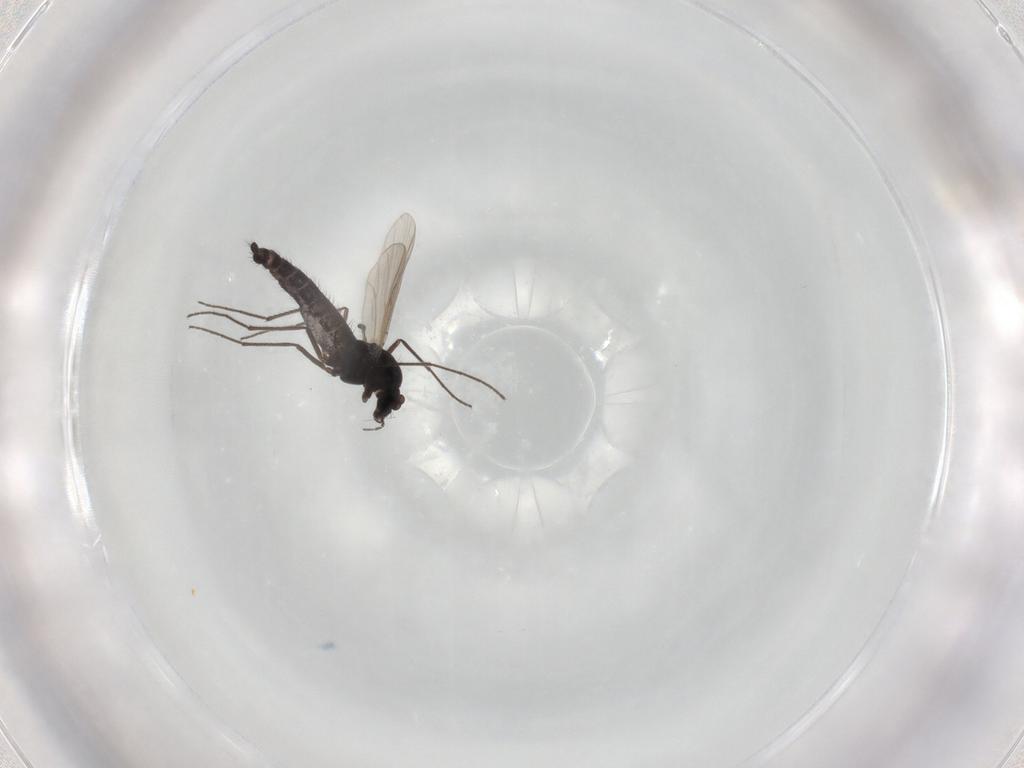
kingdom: Animalia
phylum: Arthropoda
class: Insecta
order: Diptera
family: Chironomidae
